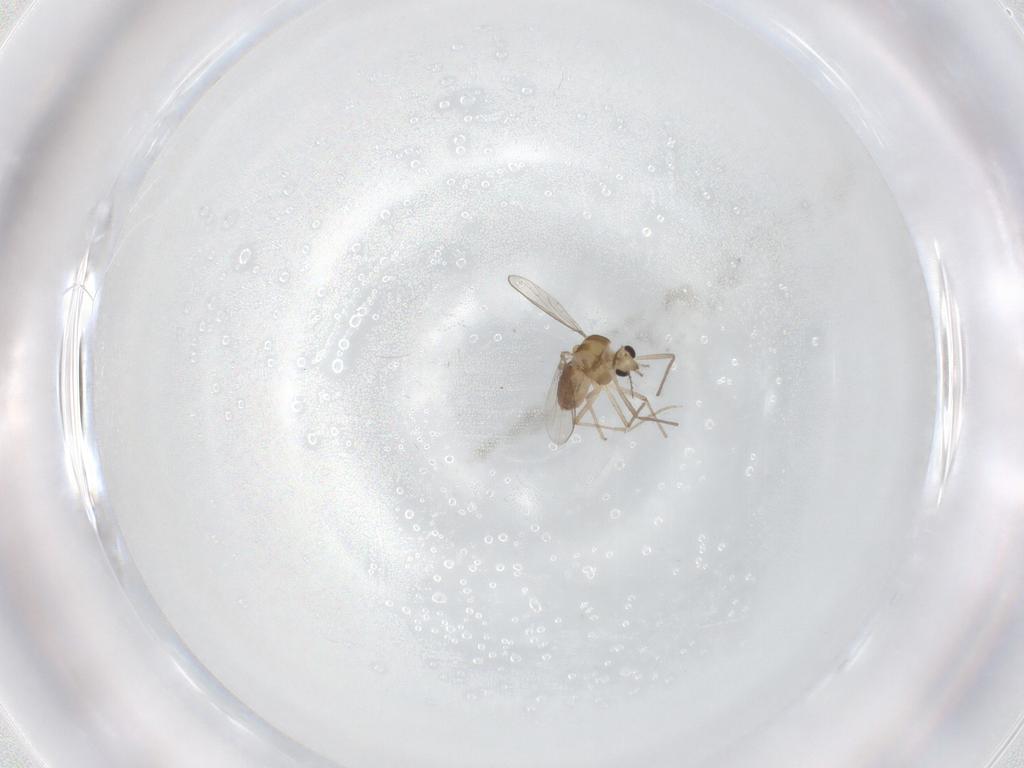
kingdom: Animalia
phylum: Arthropoda
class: Insecta
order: Diptera
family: Chironomidae
